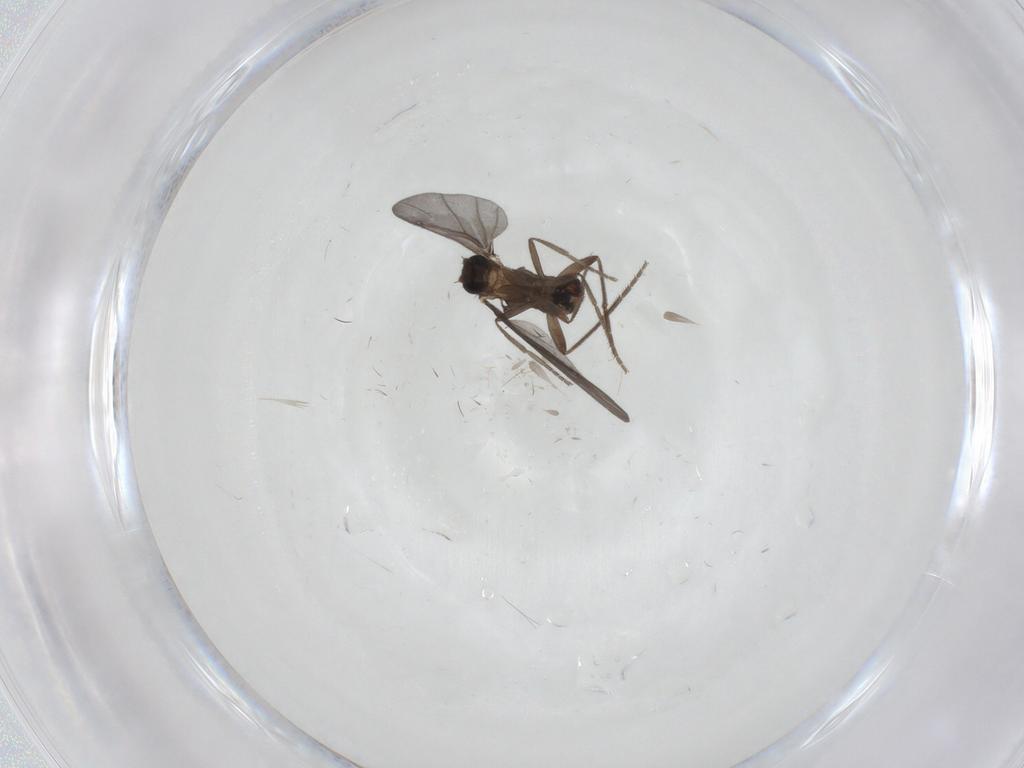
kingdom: Animalia
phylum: Arthropoda
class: Insecta
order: Diptera
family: Phoridae
